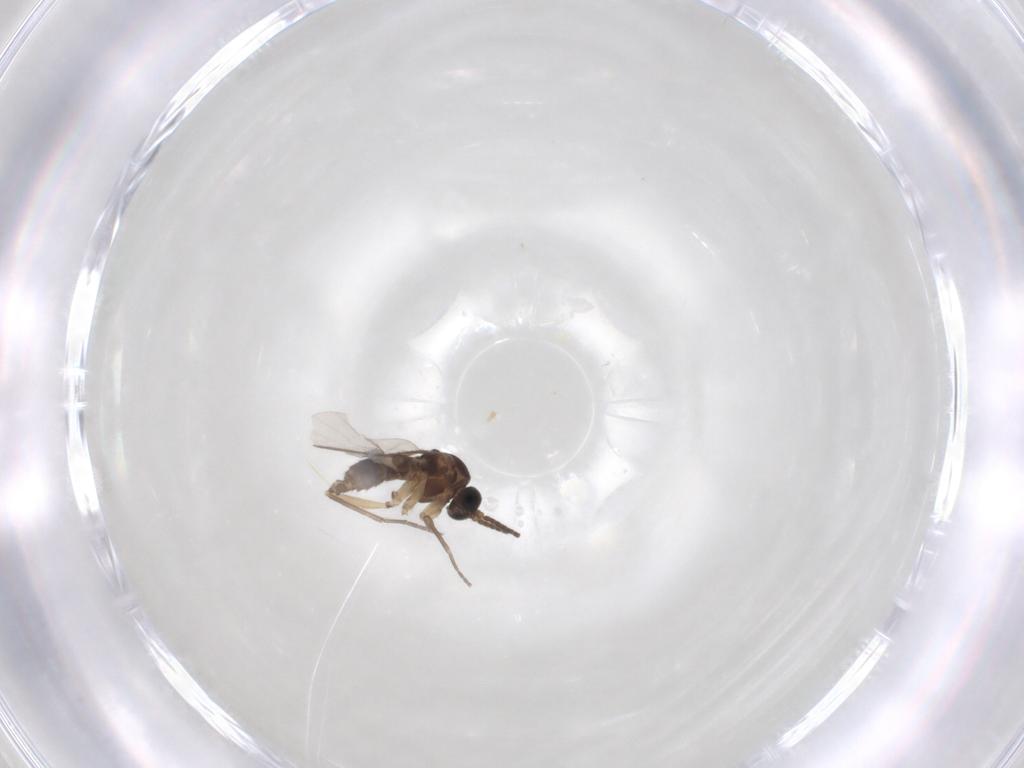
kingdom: Animalia
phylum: Arthropoda
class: Insecta
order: Diptera
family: Sciaridae
